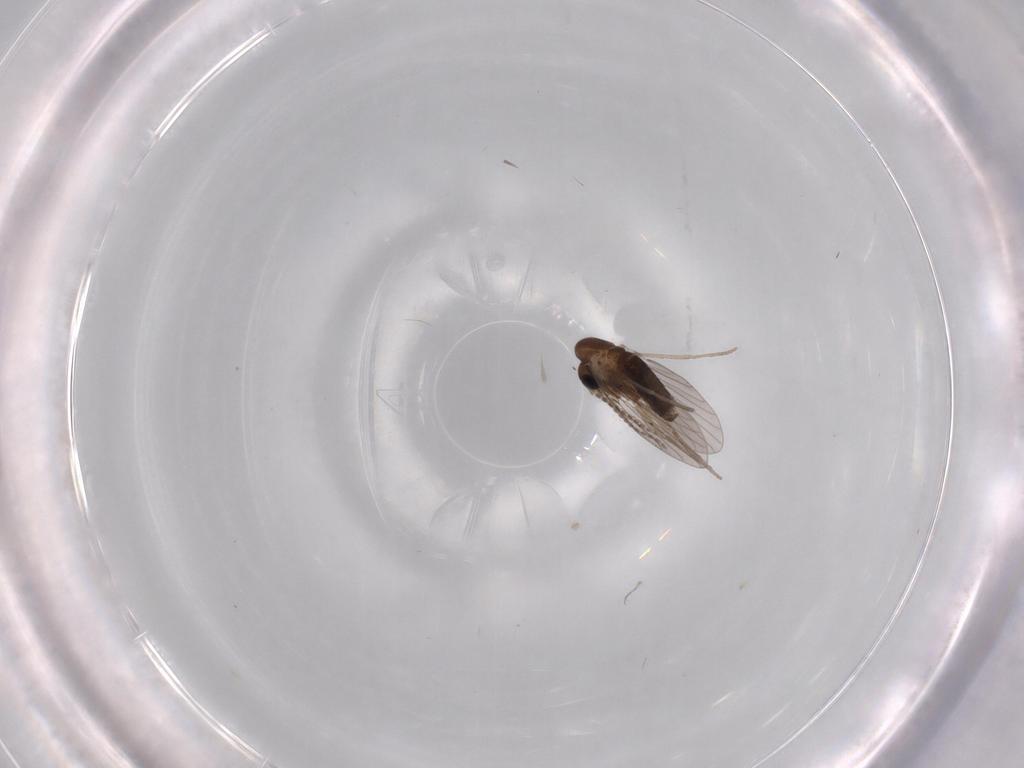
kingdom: Animalia
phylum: Arthropoda
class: Insecta
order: Diptera
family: Phoridae
